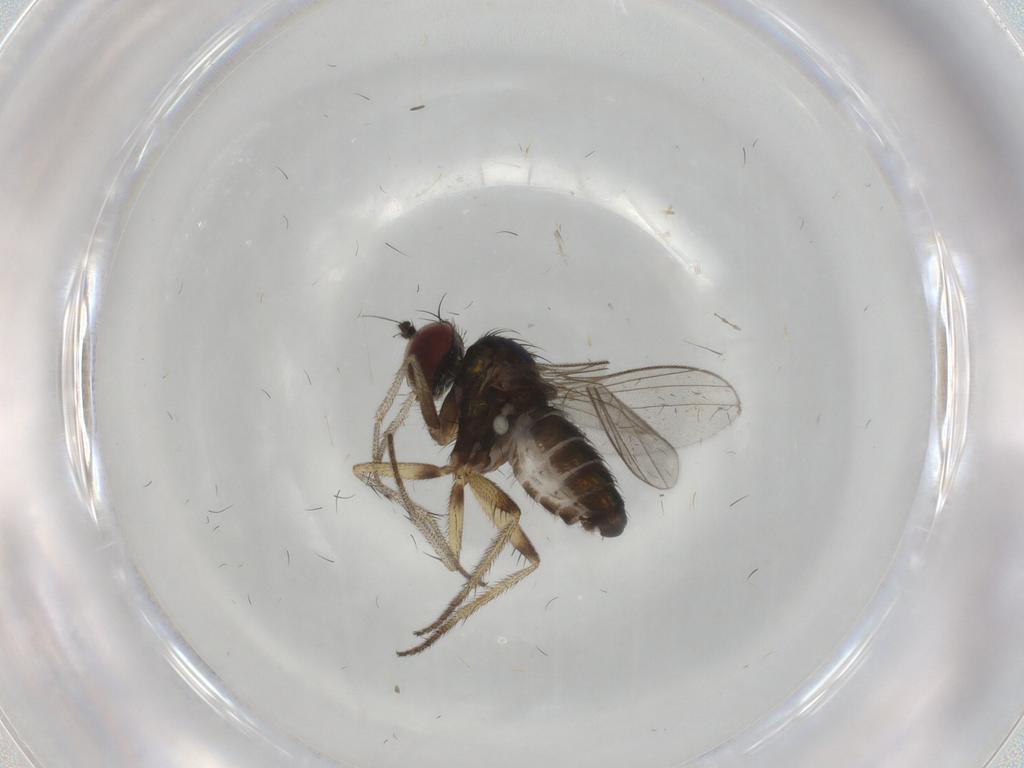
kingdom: Animalia
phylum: Arthropoda
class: Insecta
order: Diptera
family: Dolichopodidae
